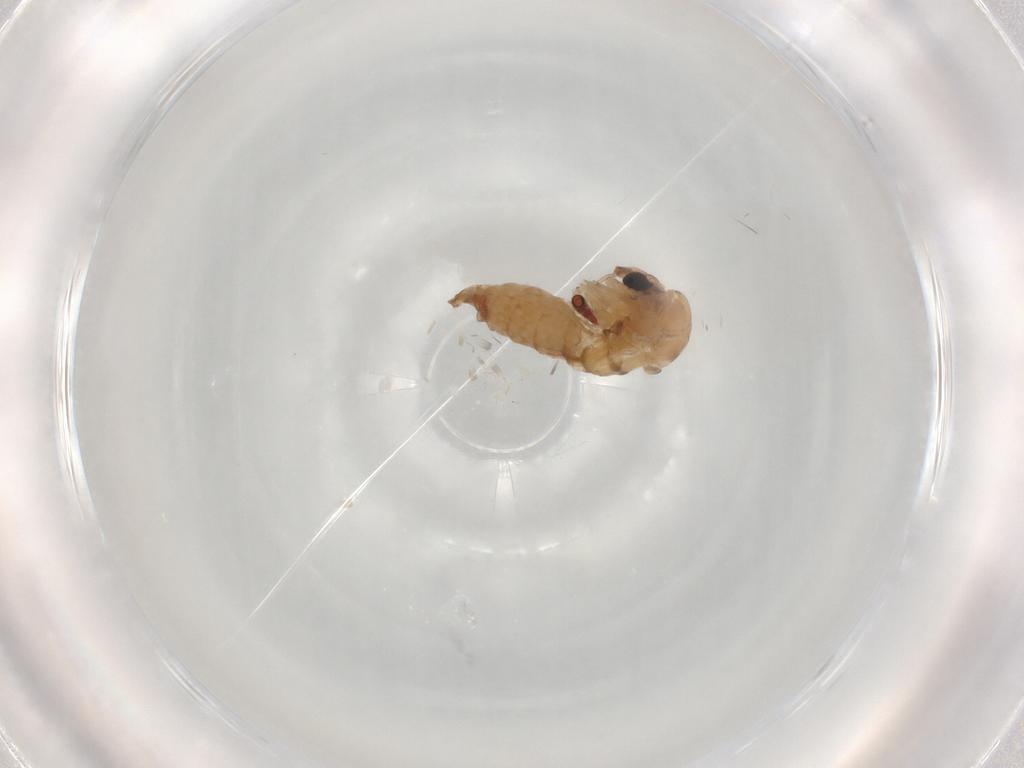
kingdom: Animalia
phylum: Arthropoda
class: Insecta
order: Diptera
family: Psychodidae
